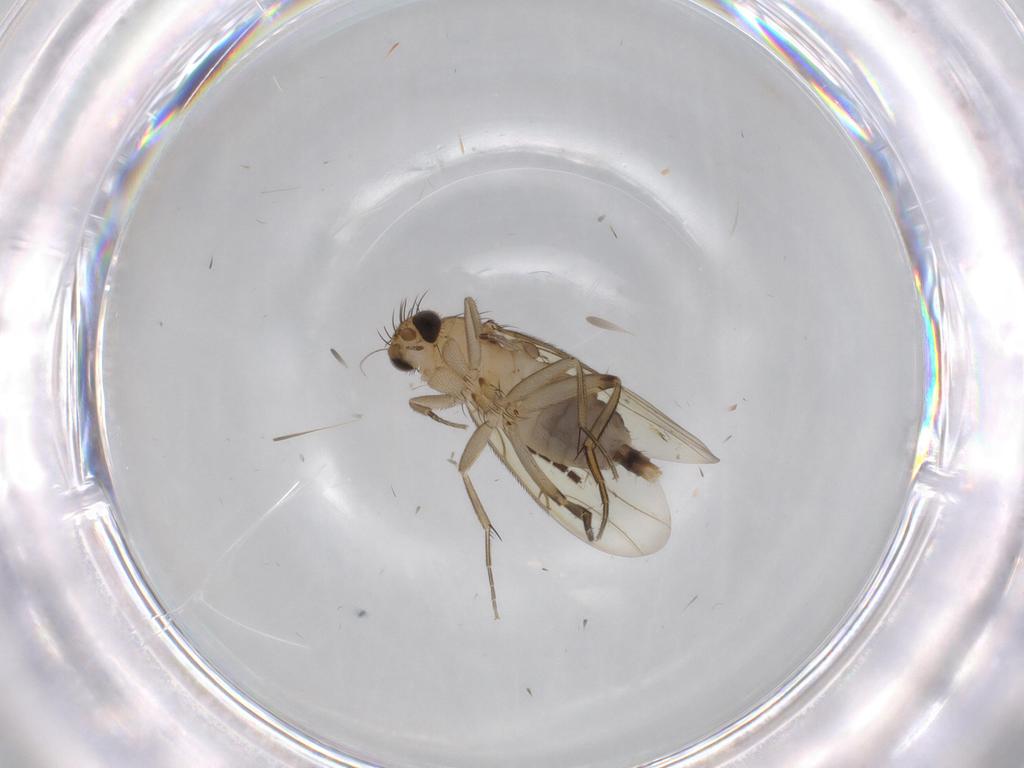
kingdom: Animalia
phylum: Arthropoda
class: Insecta
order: Diptera
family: Phoridae
